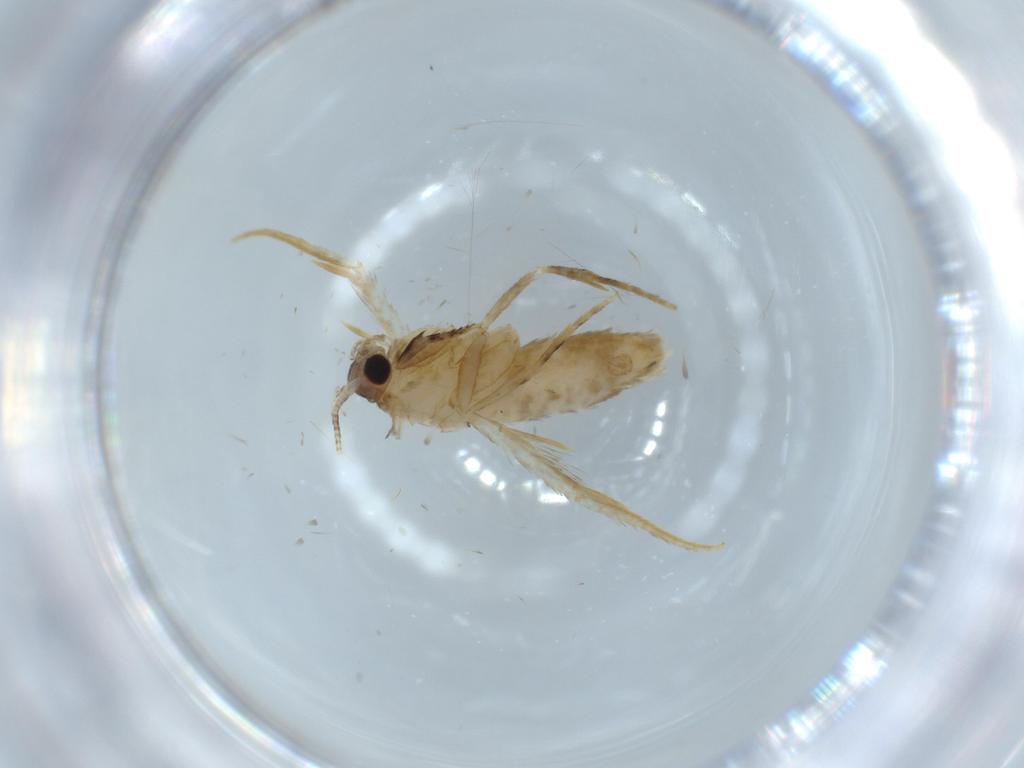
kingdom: Animalia
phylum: Arthropoda
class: Insecta
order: Lepidoptera
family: Tineidae
